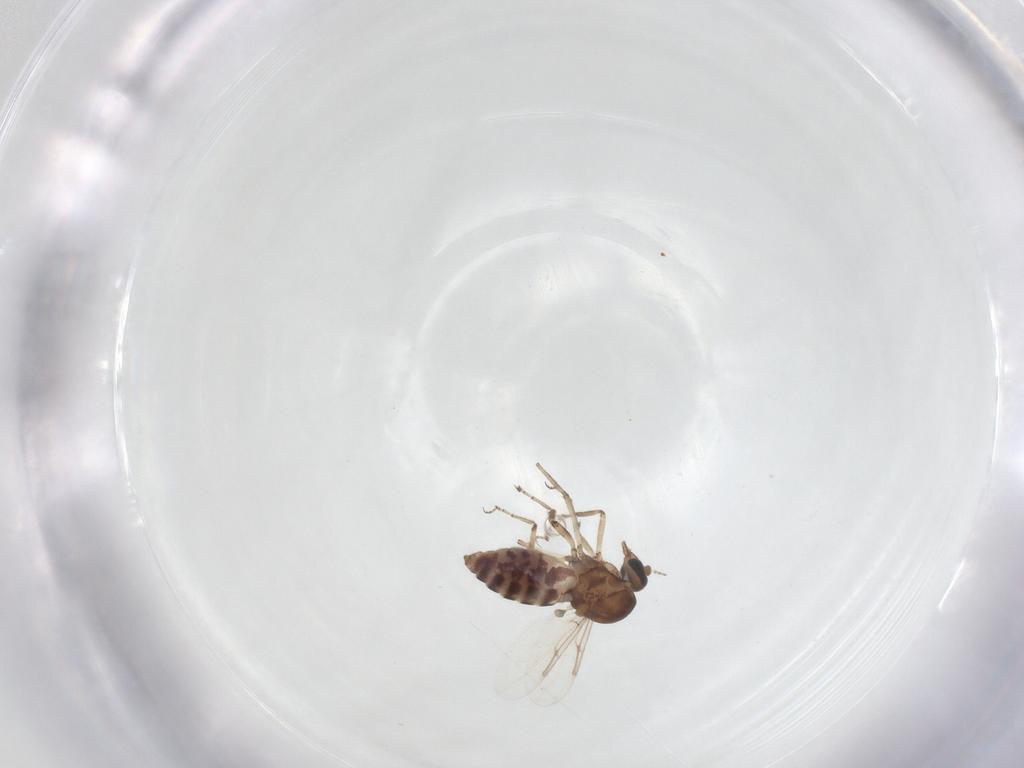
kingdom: Animalia
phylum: Arthropoda
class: Insecta
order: Diptera
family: Ceratopogonidae
